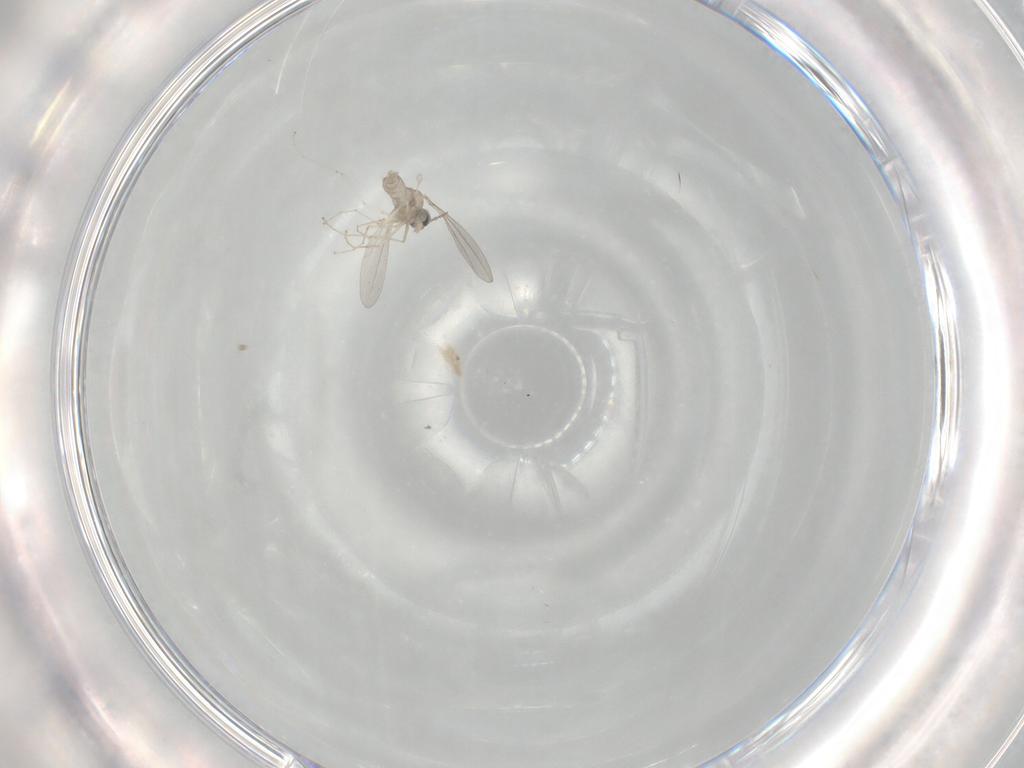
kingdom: Animalia
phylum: Arthropoda
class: Insecta
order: Diptera
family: Cecidomyiidae
